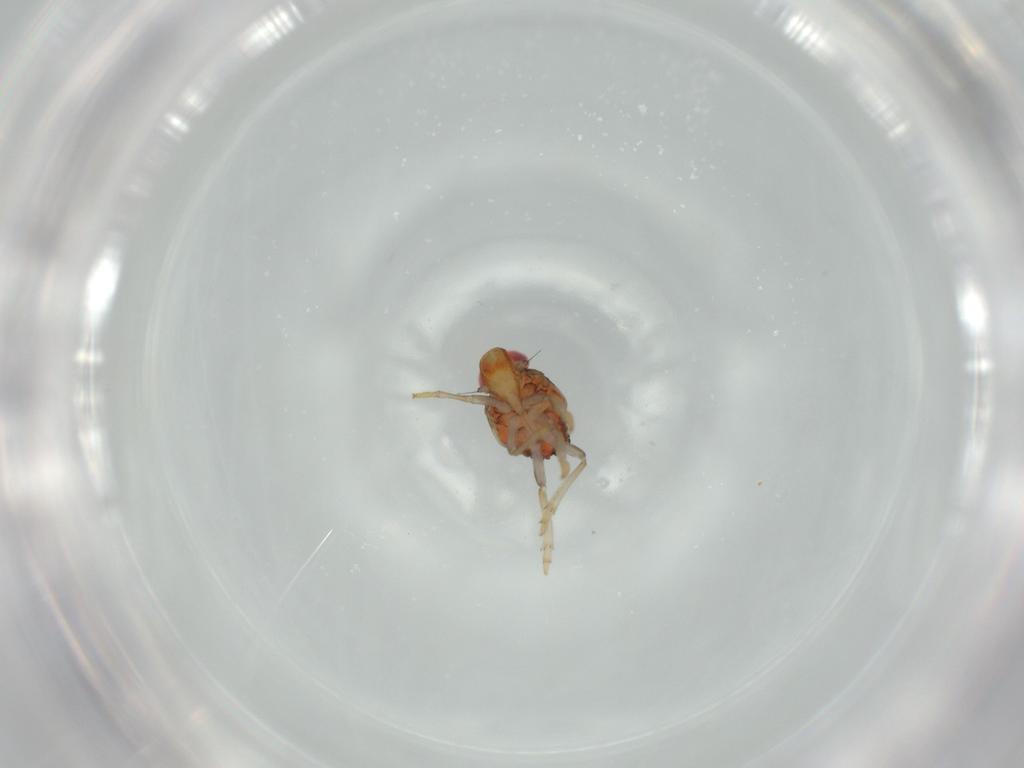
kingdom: Animalia
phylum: Arthropoda
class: Insecta
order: Hemiptera
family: Issidae
